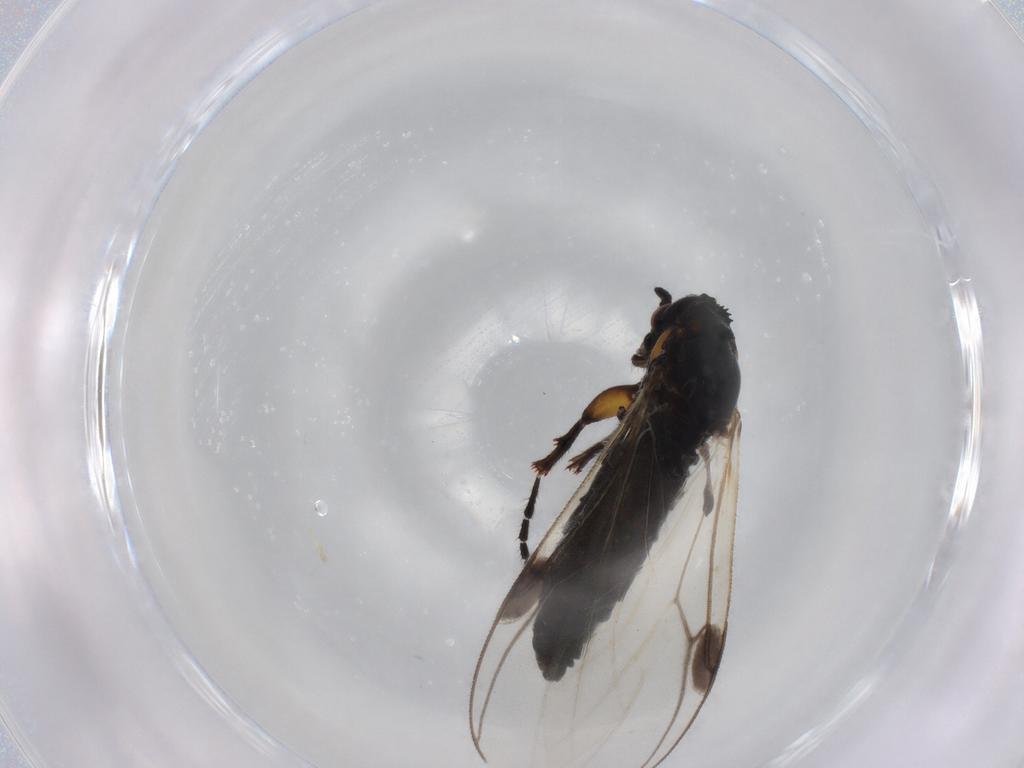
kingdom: Animalia
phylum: Arthropoda
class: Insecta
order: Diptera
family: Bibionidae
